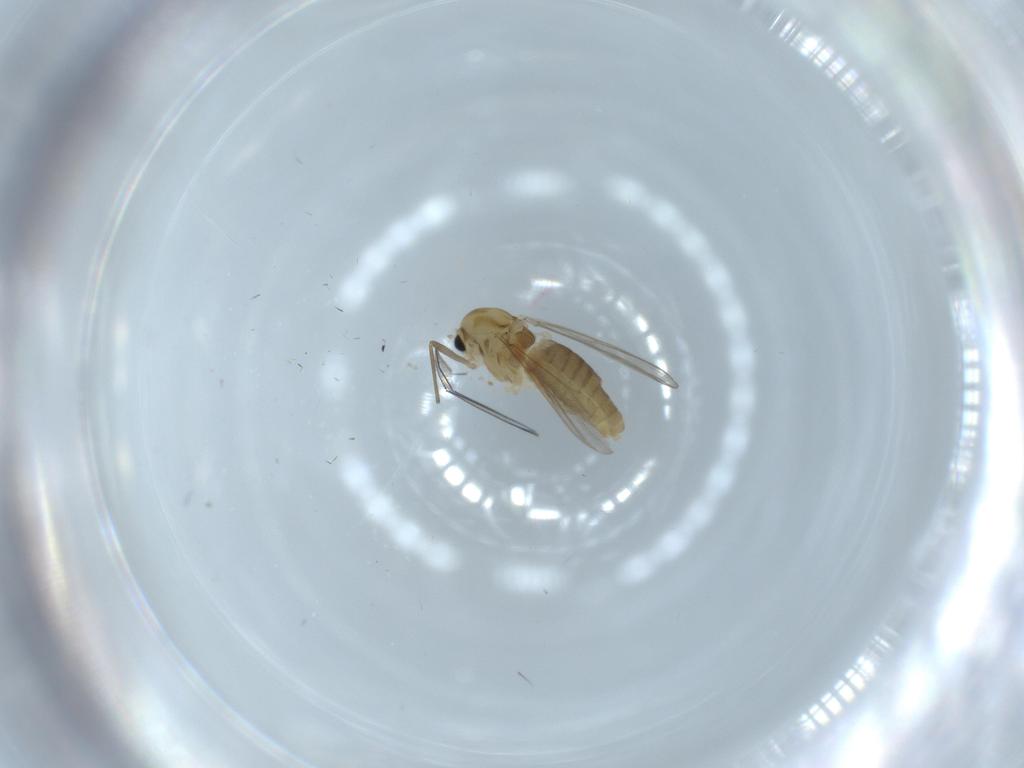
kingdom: Animalia
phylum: Arthropoda
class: Insecta
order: Diptera
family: Chironomidae
